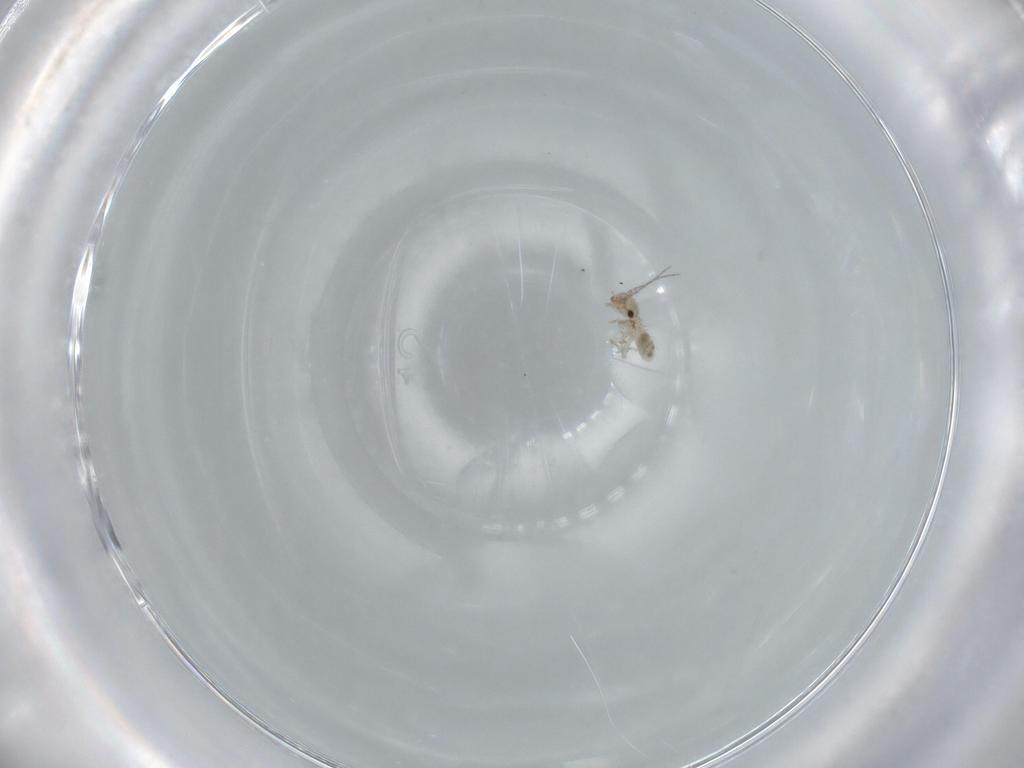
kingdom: Animalia
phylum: Arthropoda
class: Insecta
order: Psocodea
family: Lepidopsocidae
